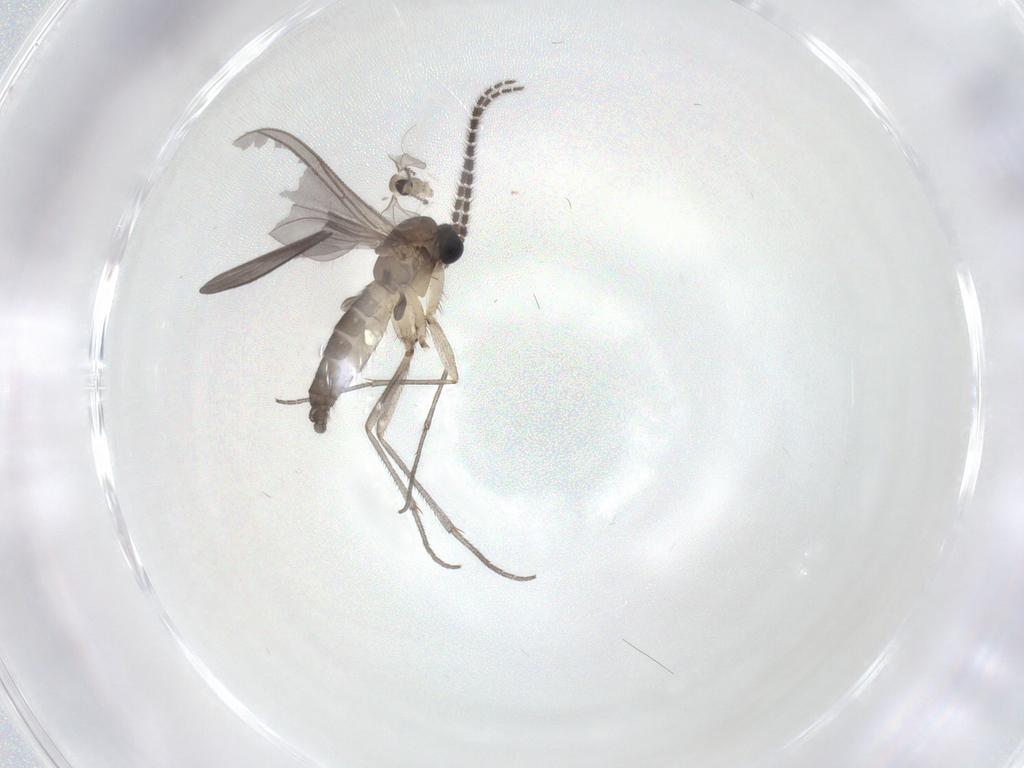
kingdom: Animalia
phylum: Arthropoda
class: Insecta
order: Diptera
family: Sciaridae
